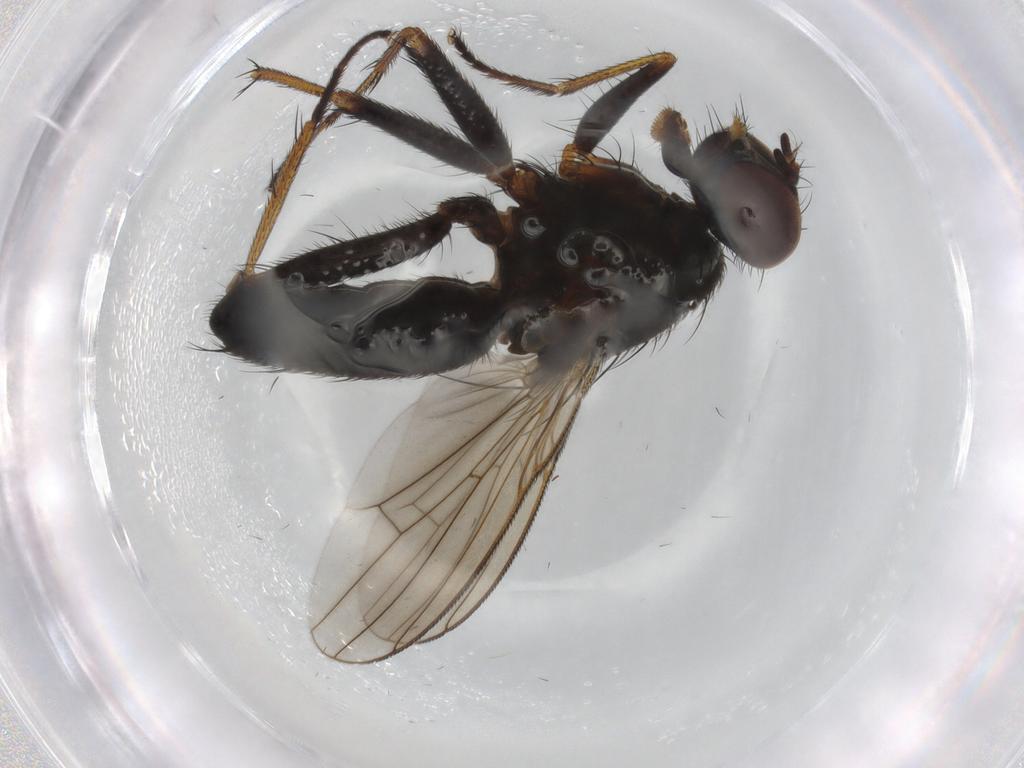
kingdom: Animalia
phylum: Arthropoda
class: Insecta
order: Diptera
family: Muscidae
